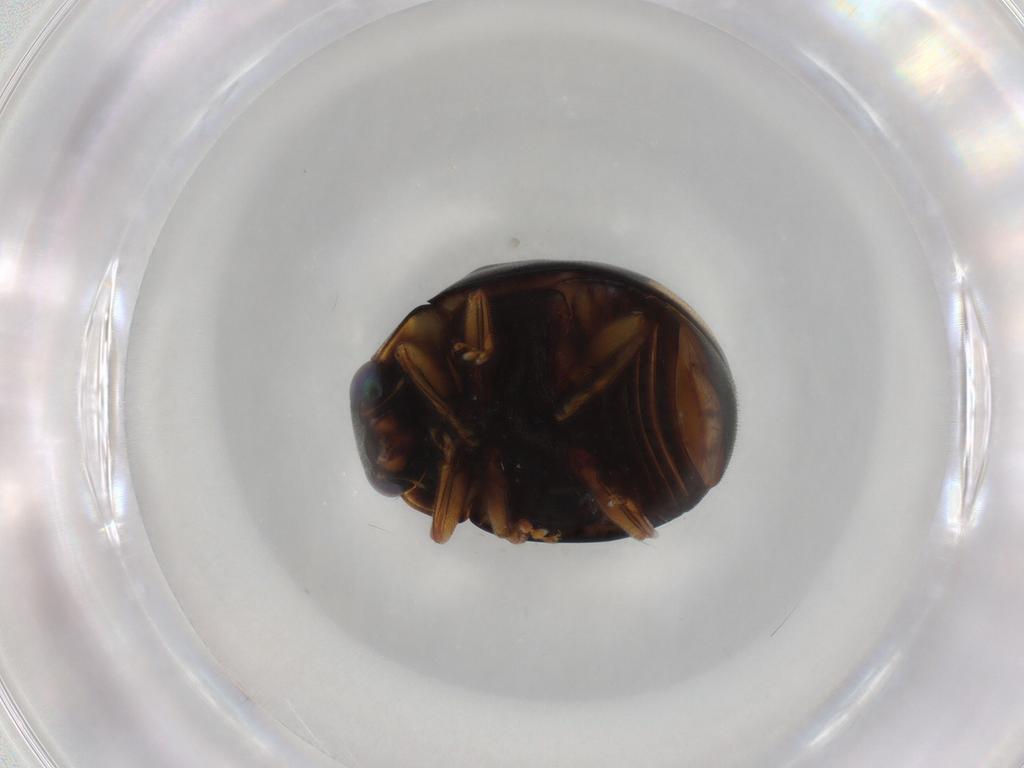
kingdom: Animalia
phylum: Arthropoda
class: Insecta
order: Coleoptera
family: Coccinellidae
